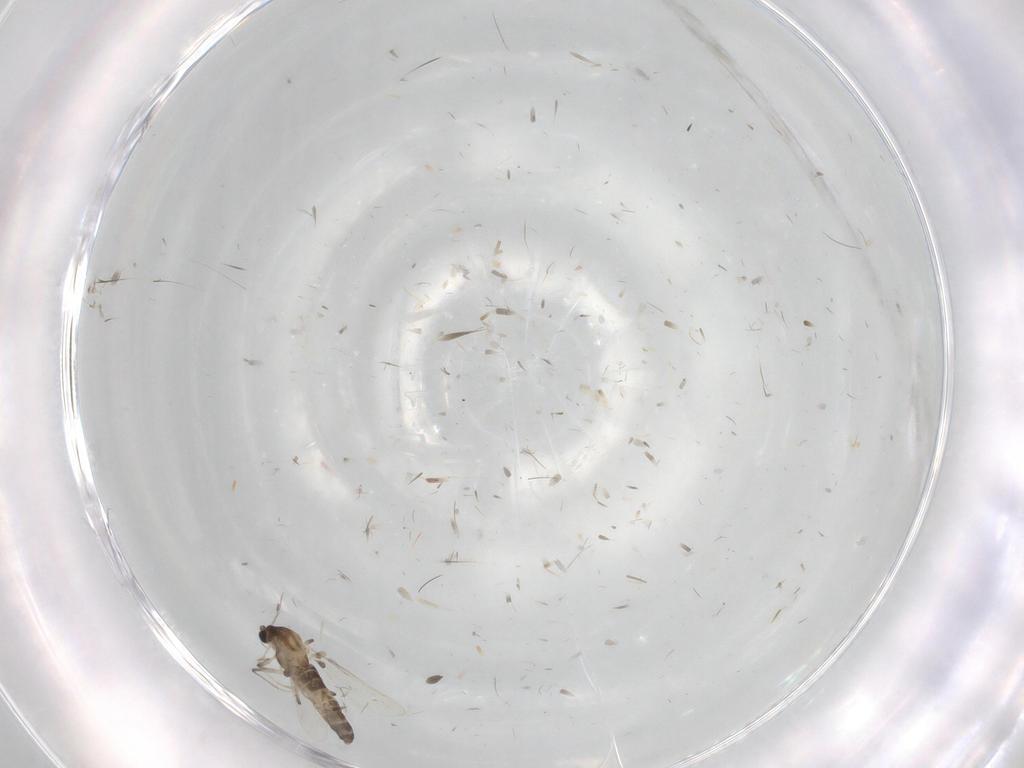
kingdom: Animalia
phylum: Arthropoda
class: Insecta
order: Diptera
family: Chironomidae
